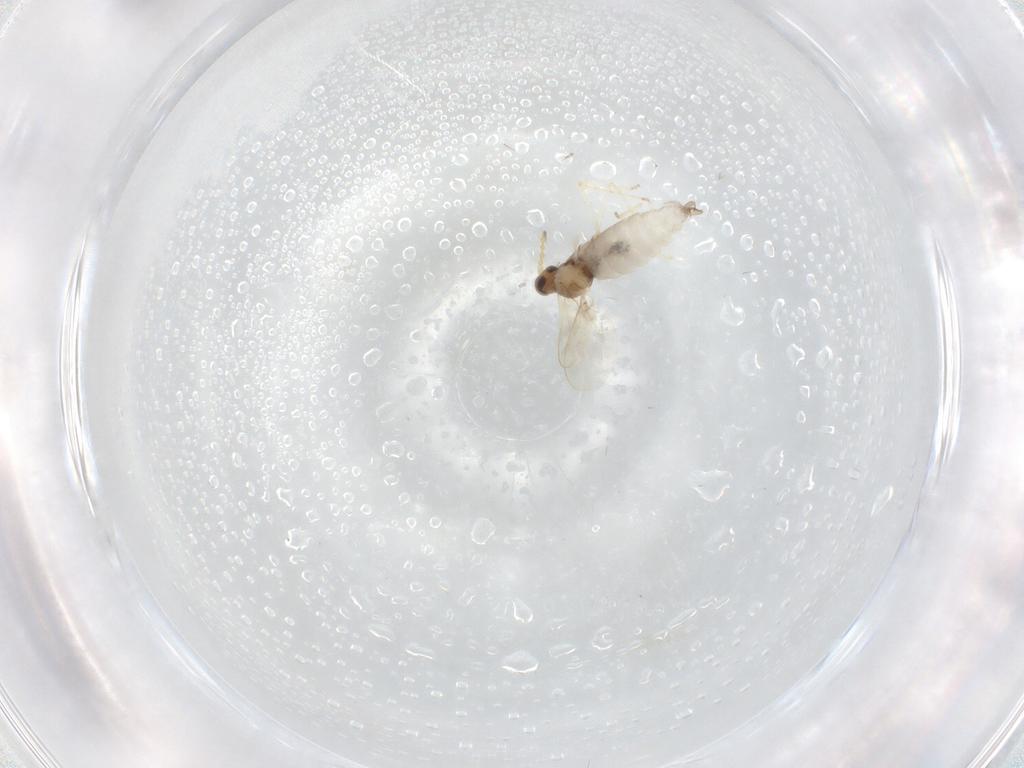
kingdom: Animalia
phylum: Arthropoda
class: Insecta
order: Diptera
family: Cecidomyiidae
